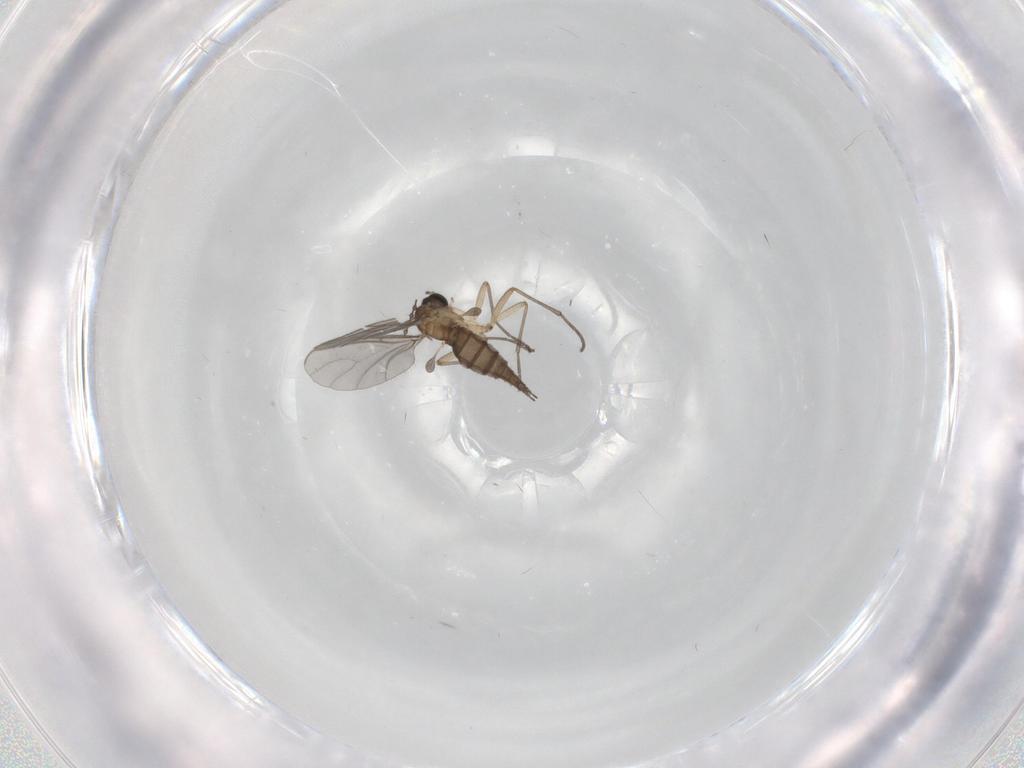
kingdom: Animalia
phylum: Arthropoda
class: Insecta
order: Diptera
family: Sciaridae
